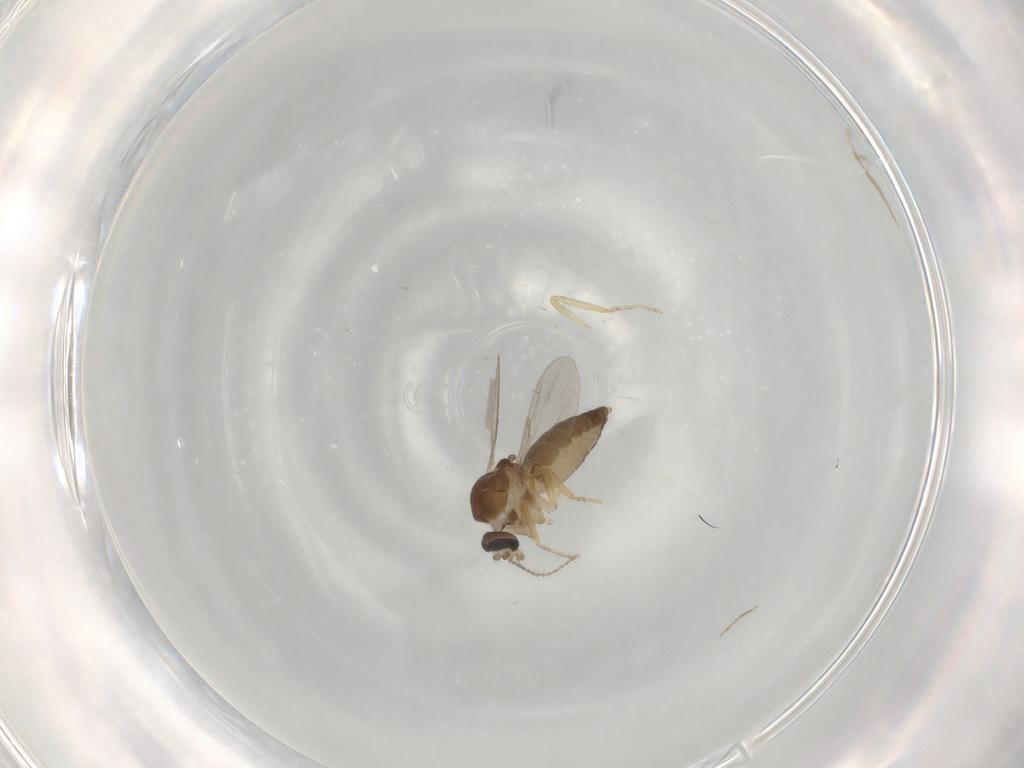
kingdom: Animalia
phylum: Arthropoda
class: Insecta
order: Diptera
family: Ceratopogonidae
